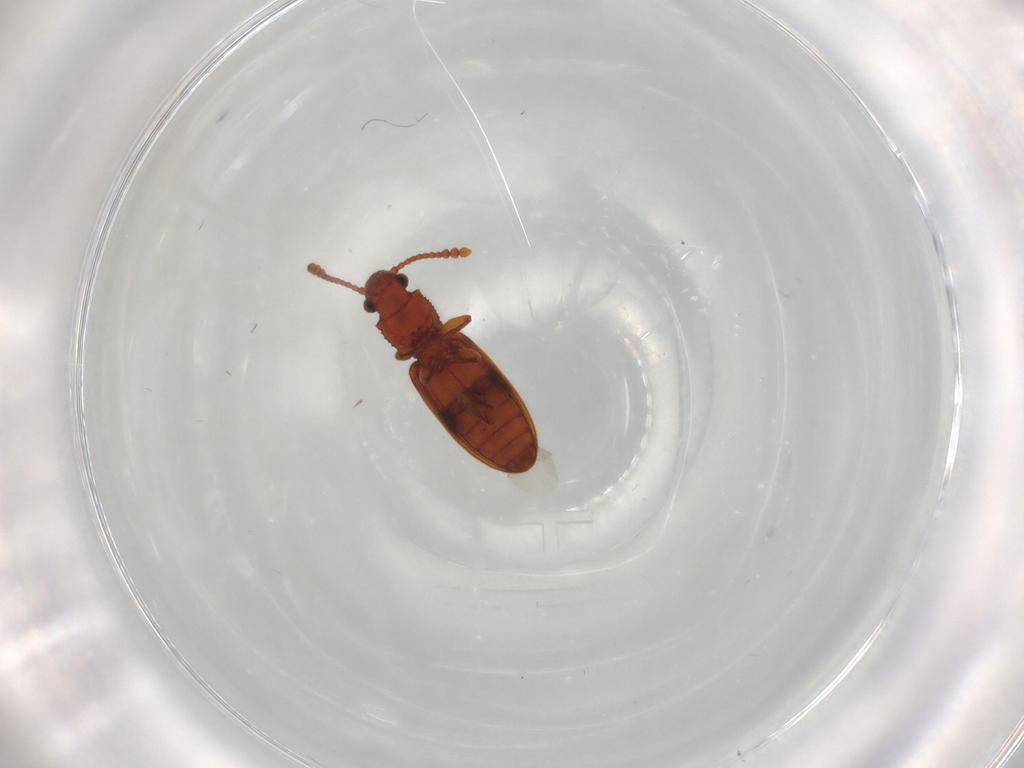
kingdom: Animalia
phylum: Arthropoda
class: Insecta
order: Coleoptera
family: Silvanidae
